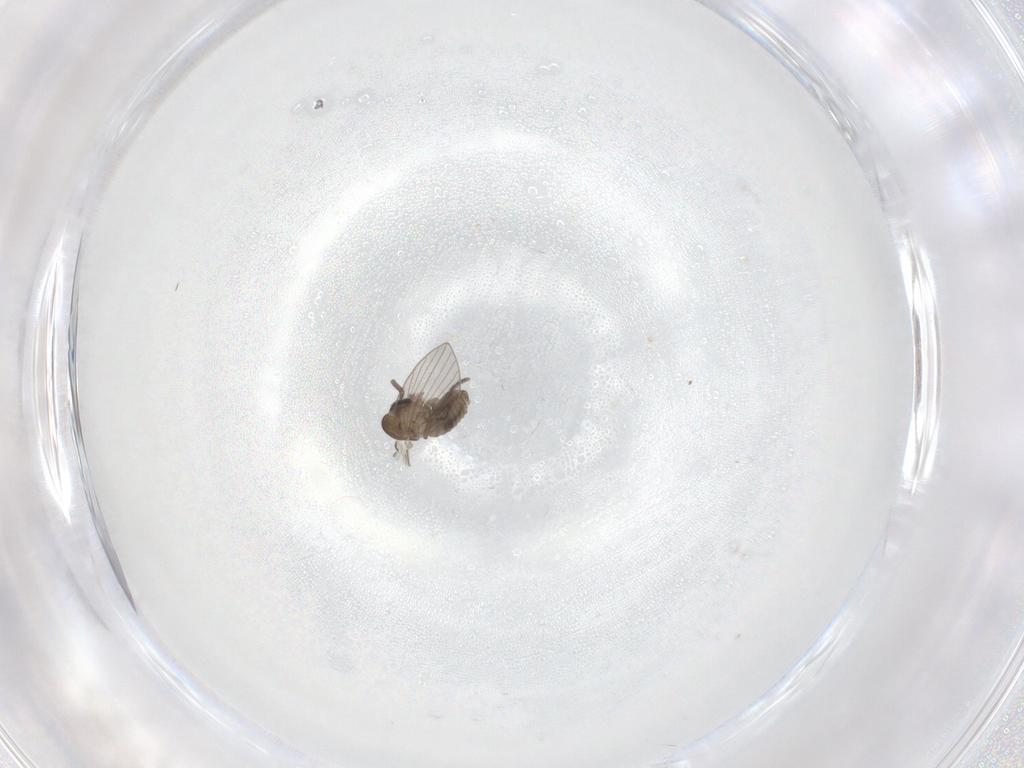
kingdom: Animalia
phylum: Arthropoda
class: Insecta
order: Diptera
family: Psychodidae
